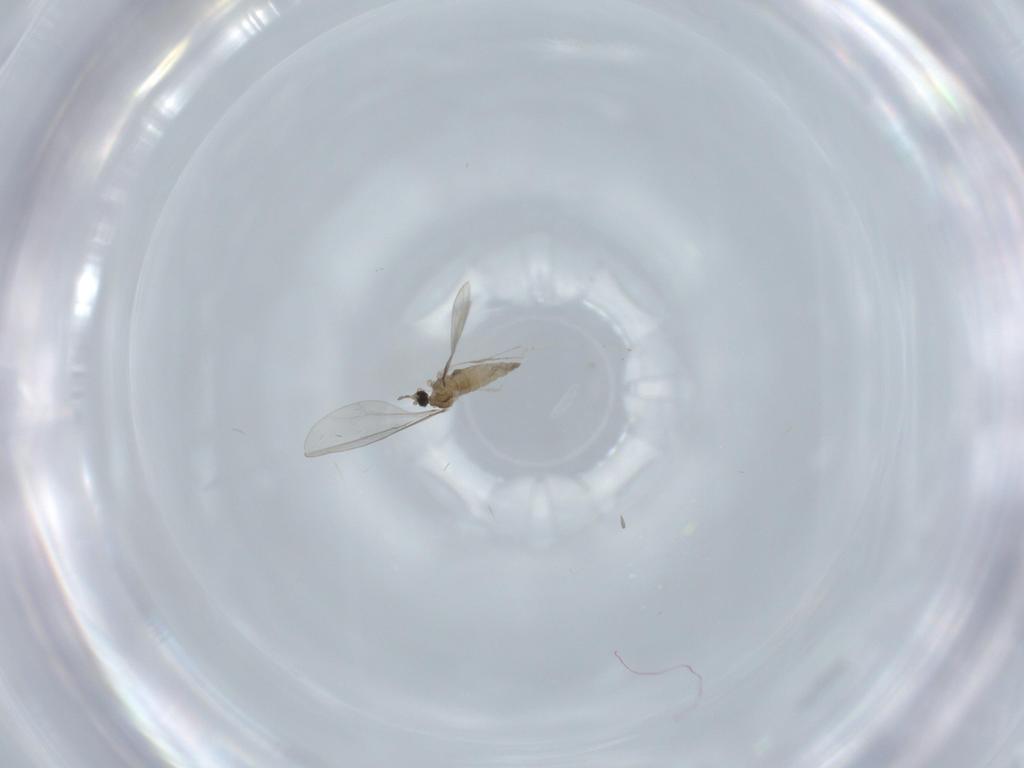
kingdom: Animalia
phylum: Arthropoda
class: Insecta
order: Diptera
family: Cecidomyiidae
